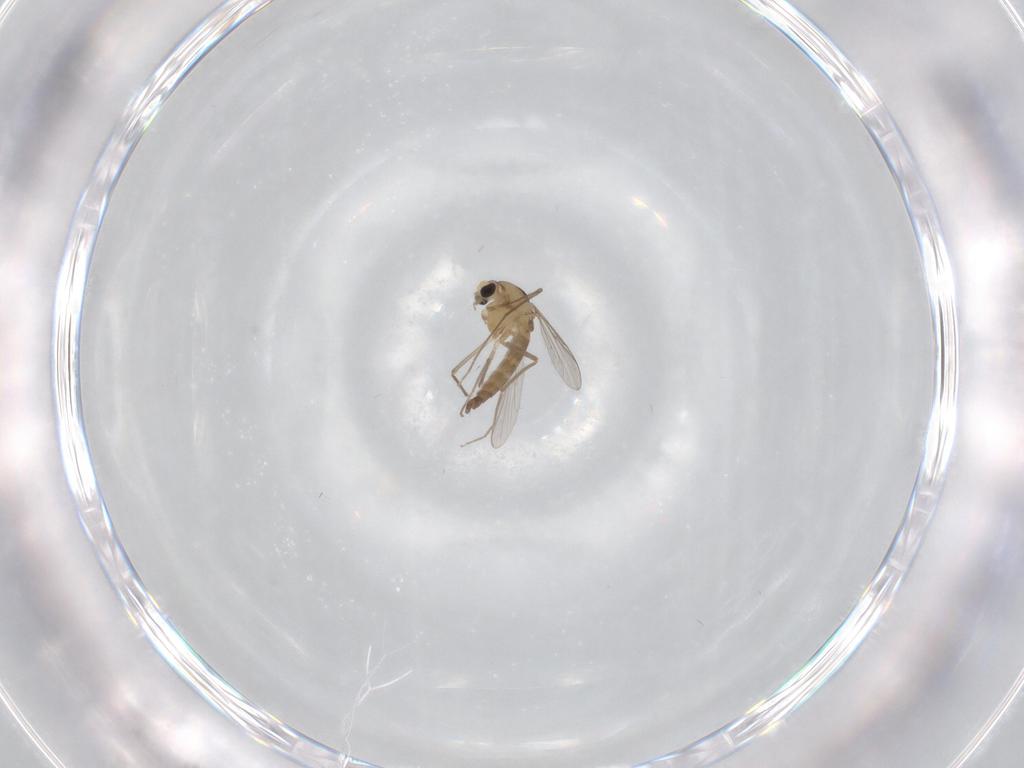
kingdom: Animalia
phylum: Arthropoda
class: Insecta
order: Diptera
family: Chironomidae
